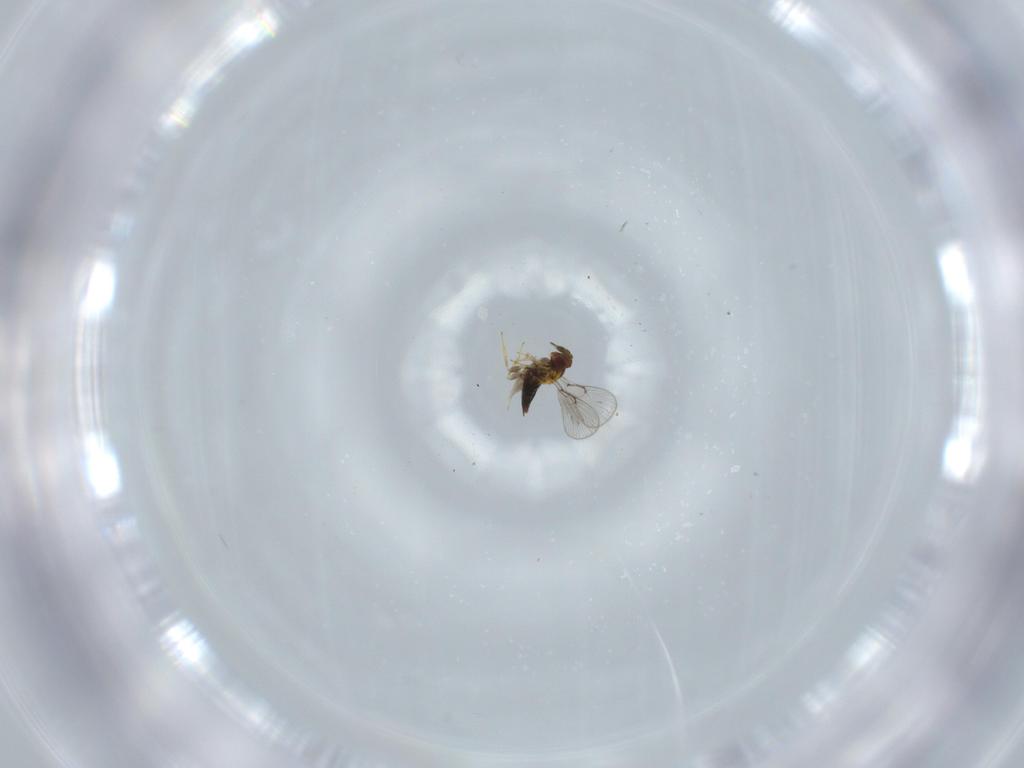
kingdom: Animalia
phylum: Arthropoda
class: Insecta
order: Hymenoptera
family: Trichogrammatidae
